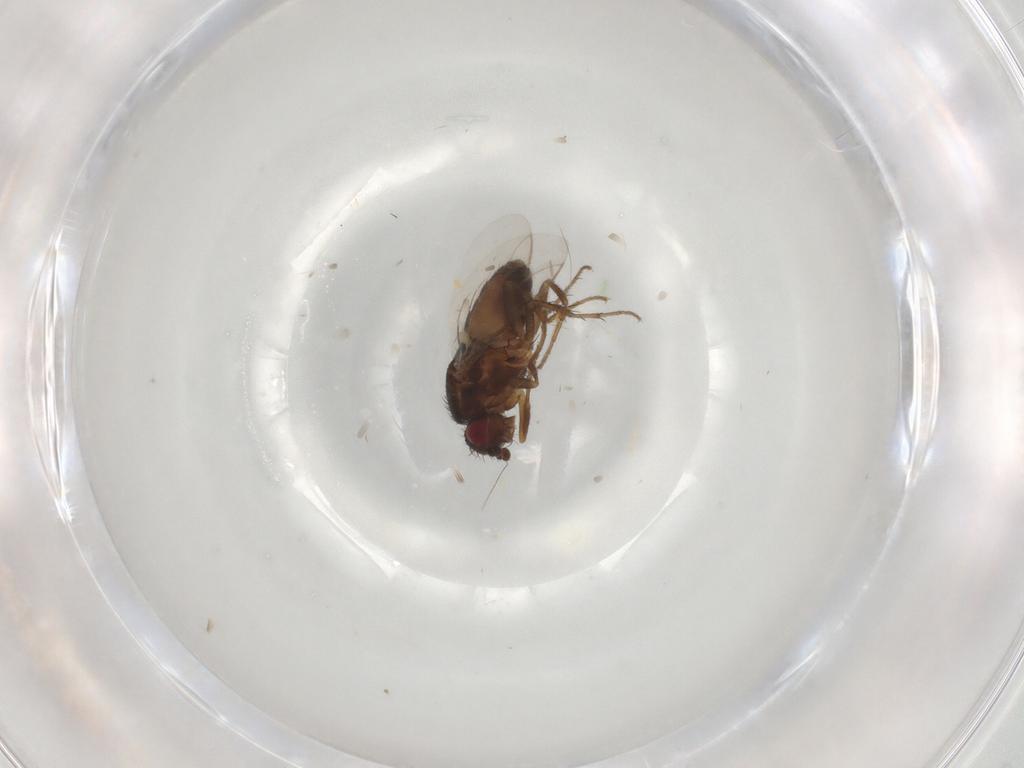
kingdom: Animalia
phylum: Arthropoda
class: Insecta
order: Diptera
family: Sphaeroceridae
